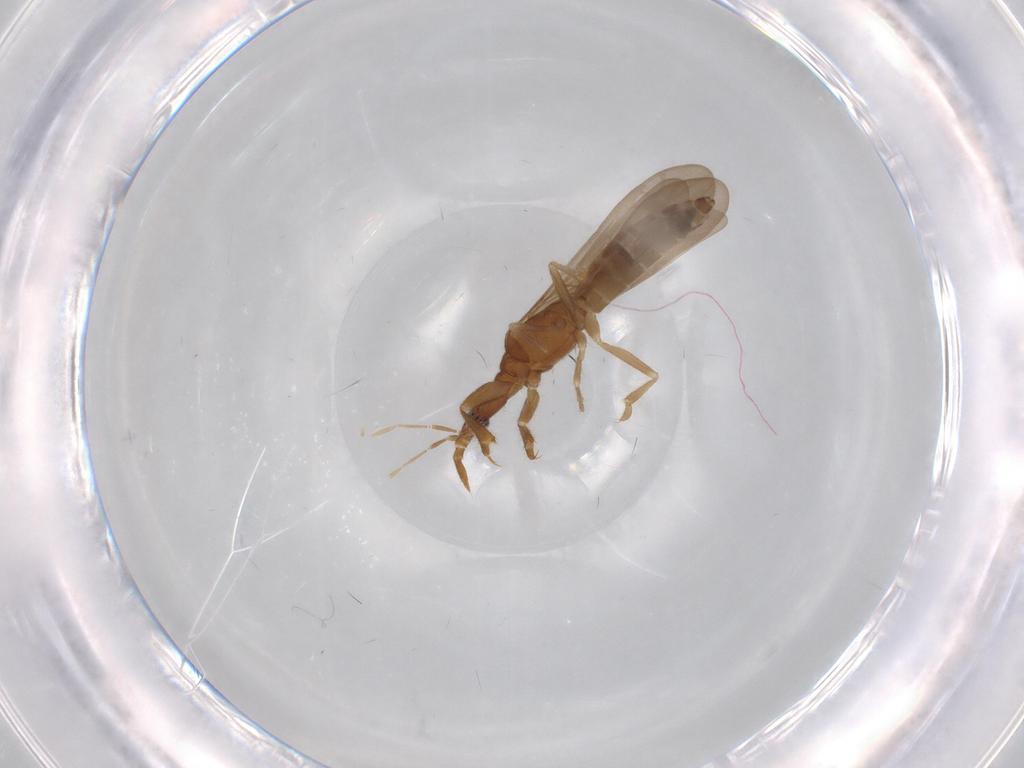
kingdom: Animalia
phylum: Arthropoda
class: Insecta
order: Hemiptera
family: Enicocephalidae
